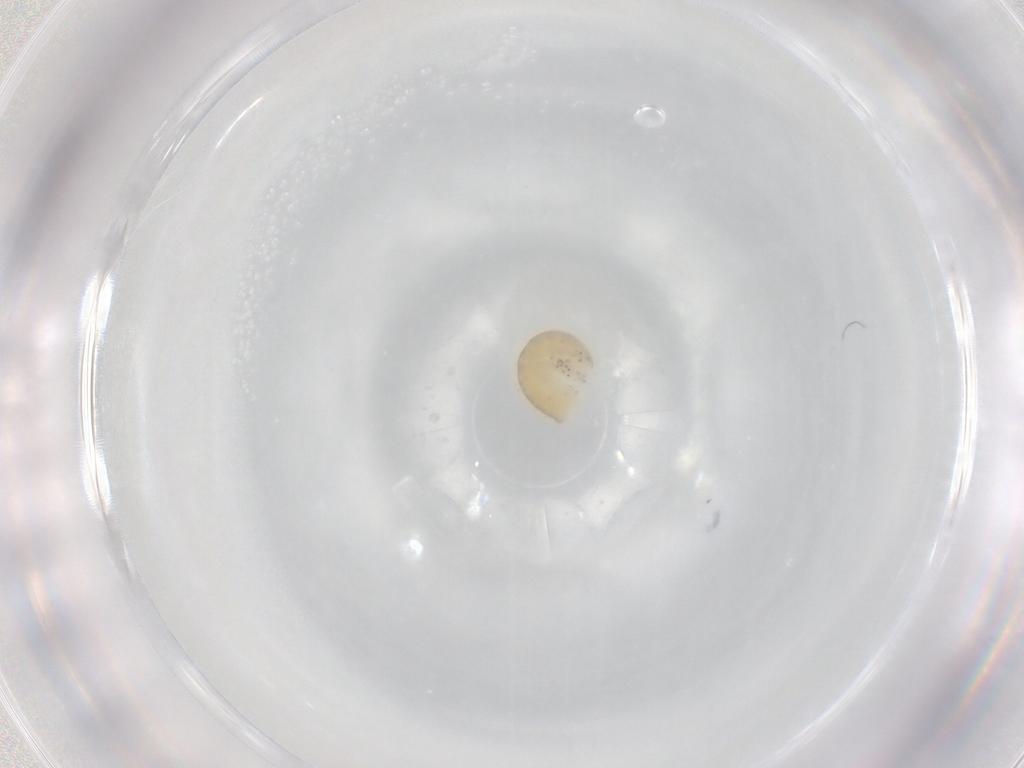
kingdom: Animalia
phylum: Arthropoda
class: Insecta
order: Hymenoptera
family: Dryinidae
